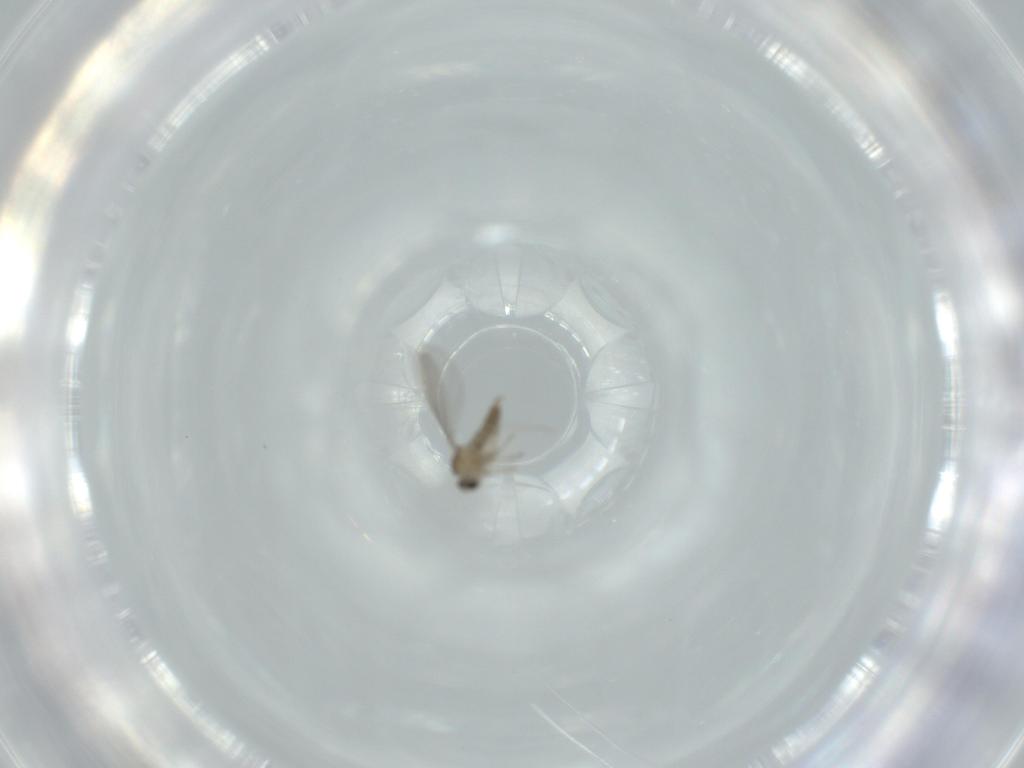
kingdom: Animalia
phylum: Arthropoda
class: Insecta
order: Diptera
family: Cecidomyiidae
